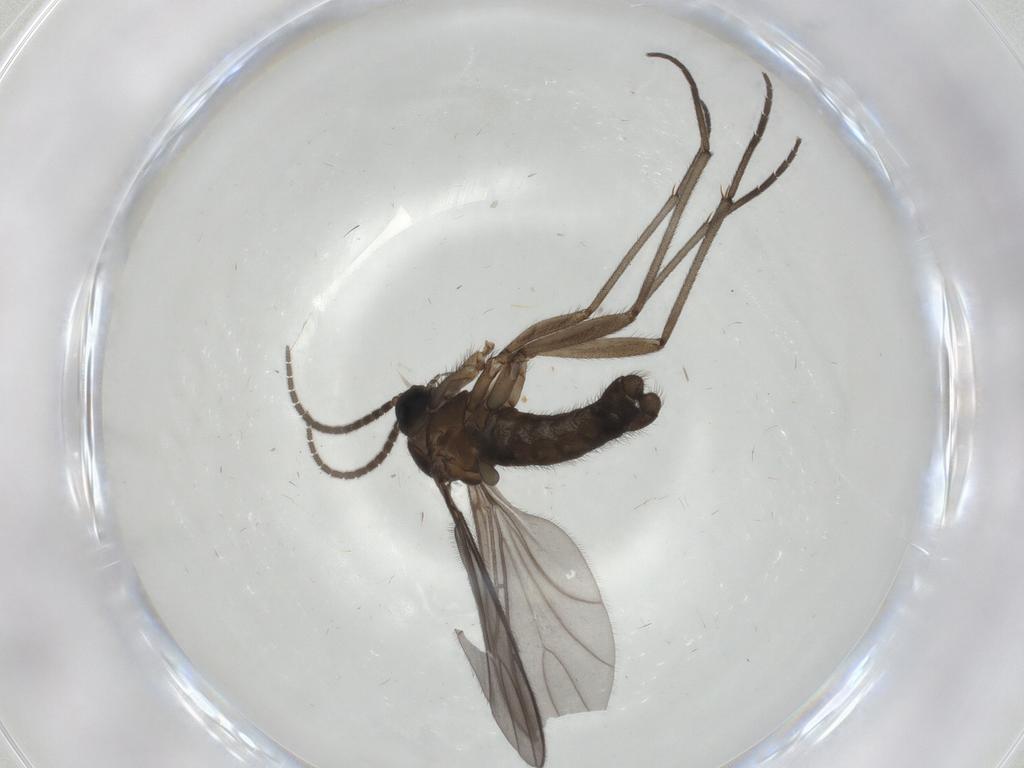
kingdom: Animalia
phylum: Arthropoda
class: Insecta
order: Diptera
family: Sciaridae
